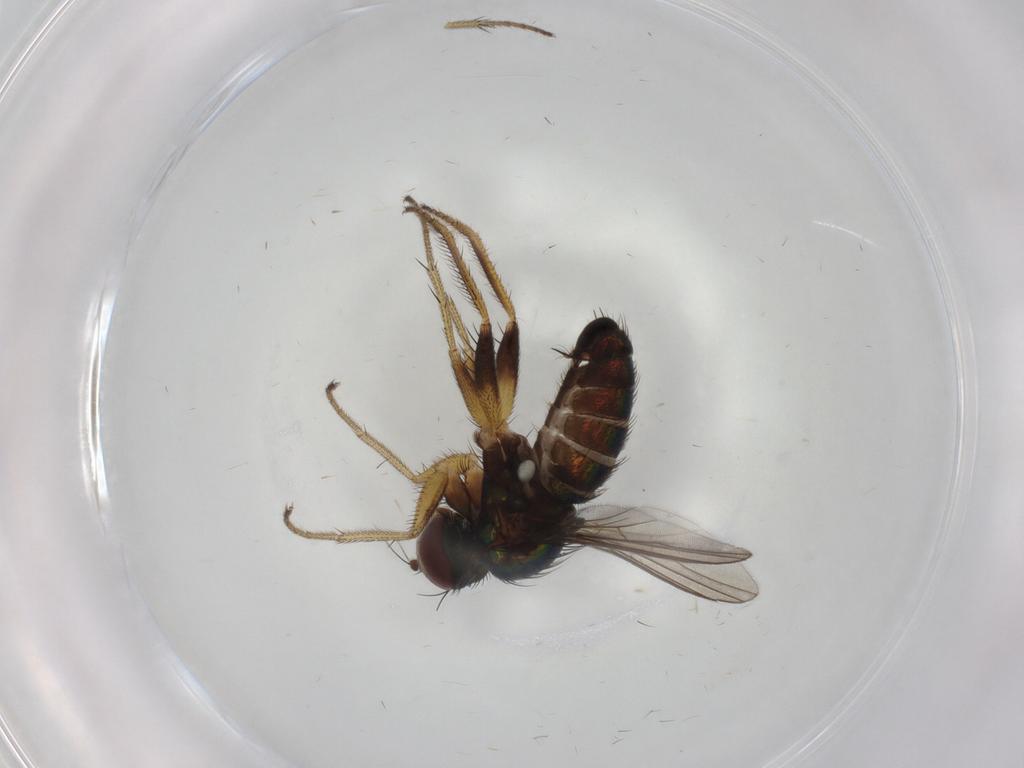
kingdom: Animalia
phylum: Arthropoda
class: Insecta
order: Diptera
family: Dolichopodidae
